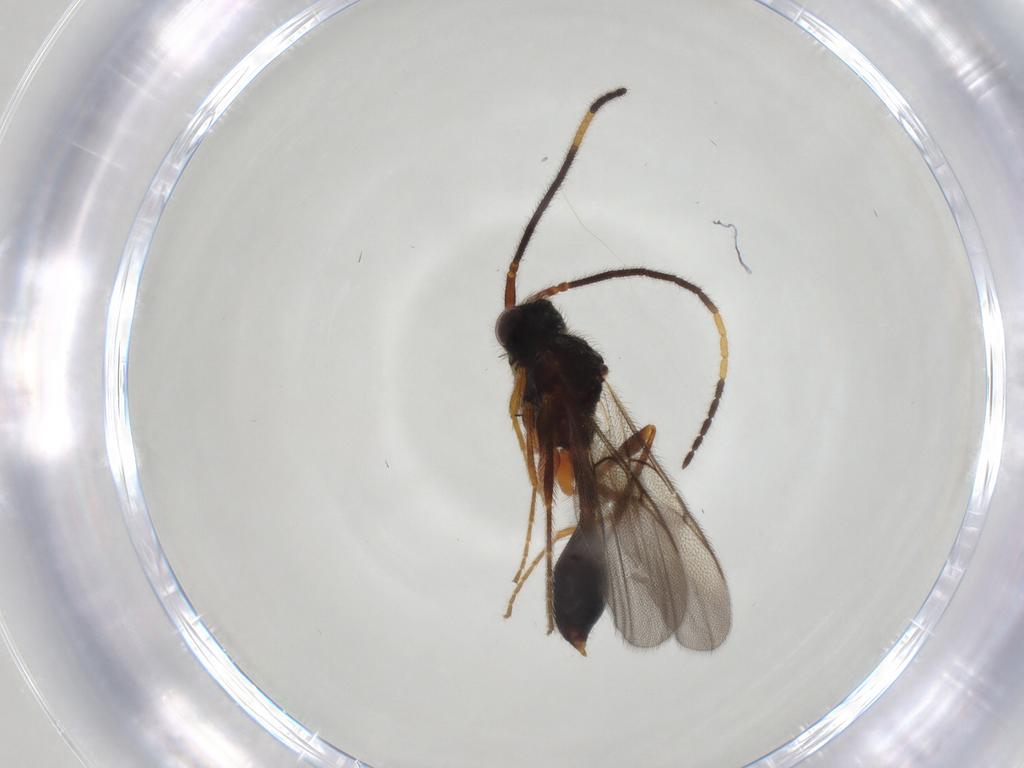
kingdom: Animalia
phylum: Arthropoda
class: Insecta
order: Hymenoptera
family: Diapriidae
